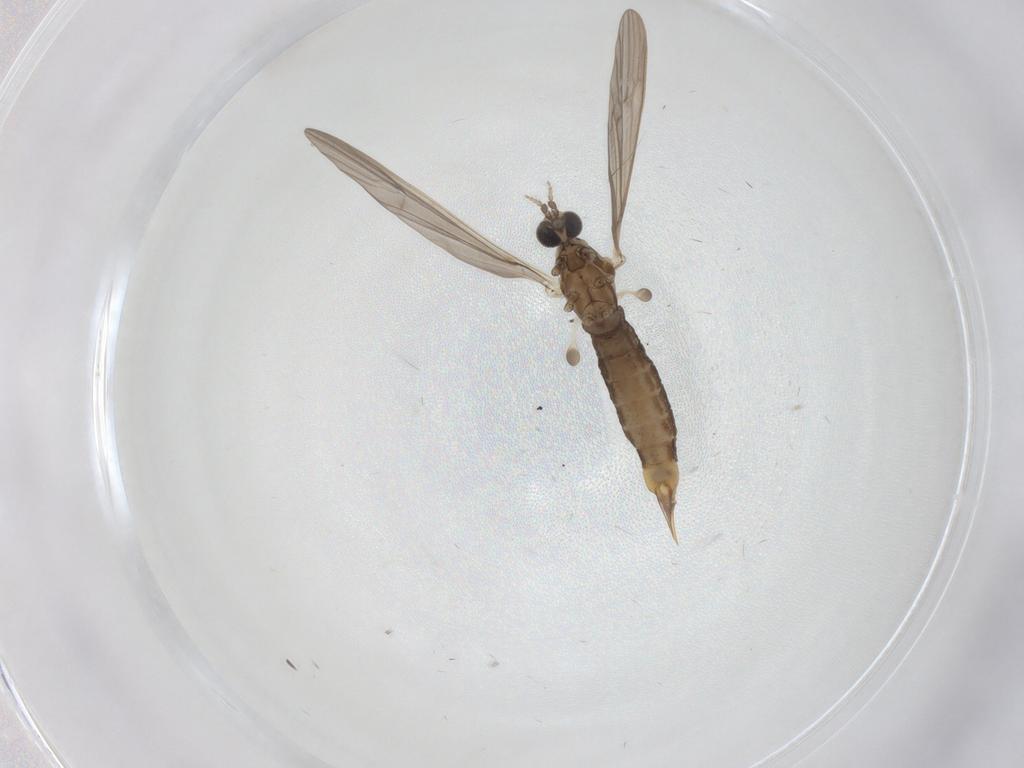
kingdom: Animalia
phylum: Arthropoda
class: Insecta
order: Diptera
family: Limoniidae
